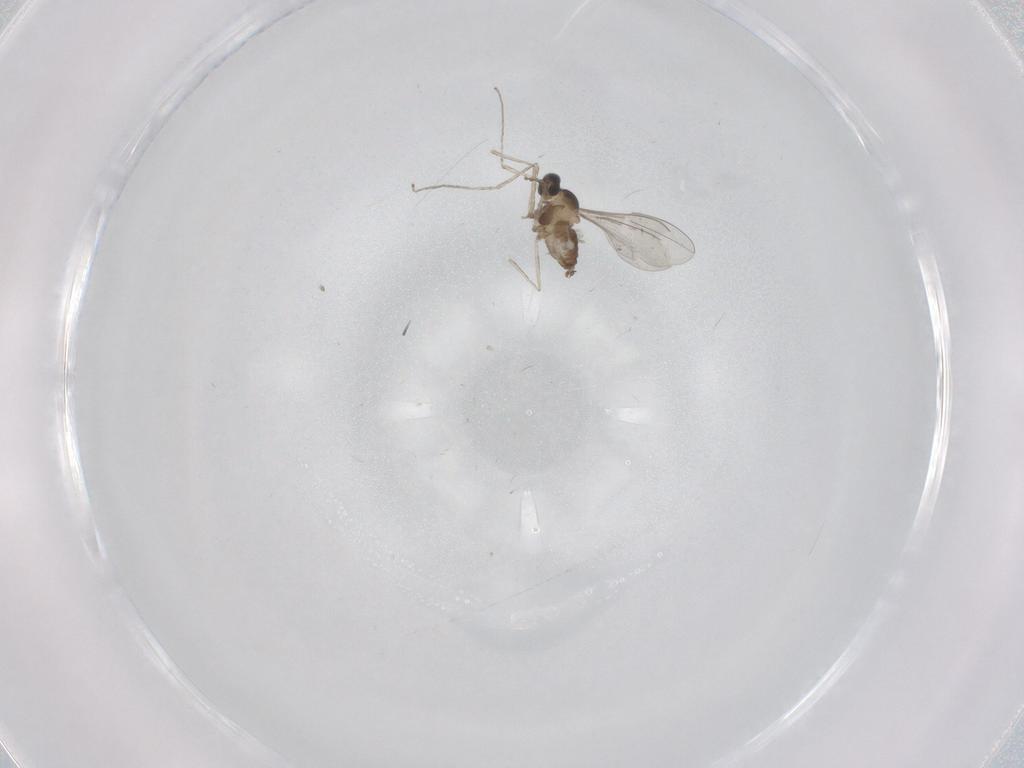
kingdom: Animalia
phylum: Arthropoda
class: Insecta
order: Diptera
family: Cecidomyiidae
